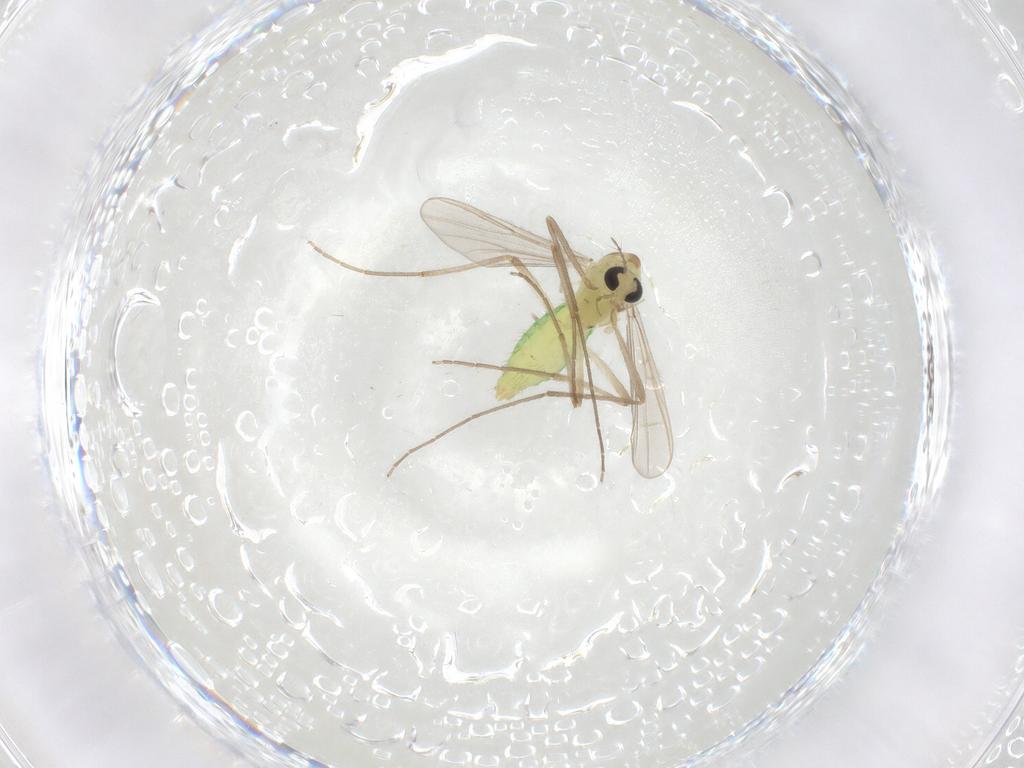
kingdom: Animalia
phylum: Arthropoda
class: Insecta
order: Diptera
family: Chironomidae
